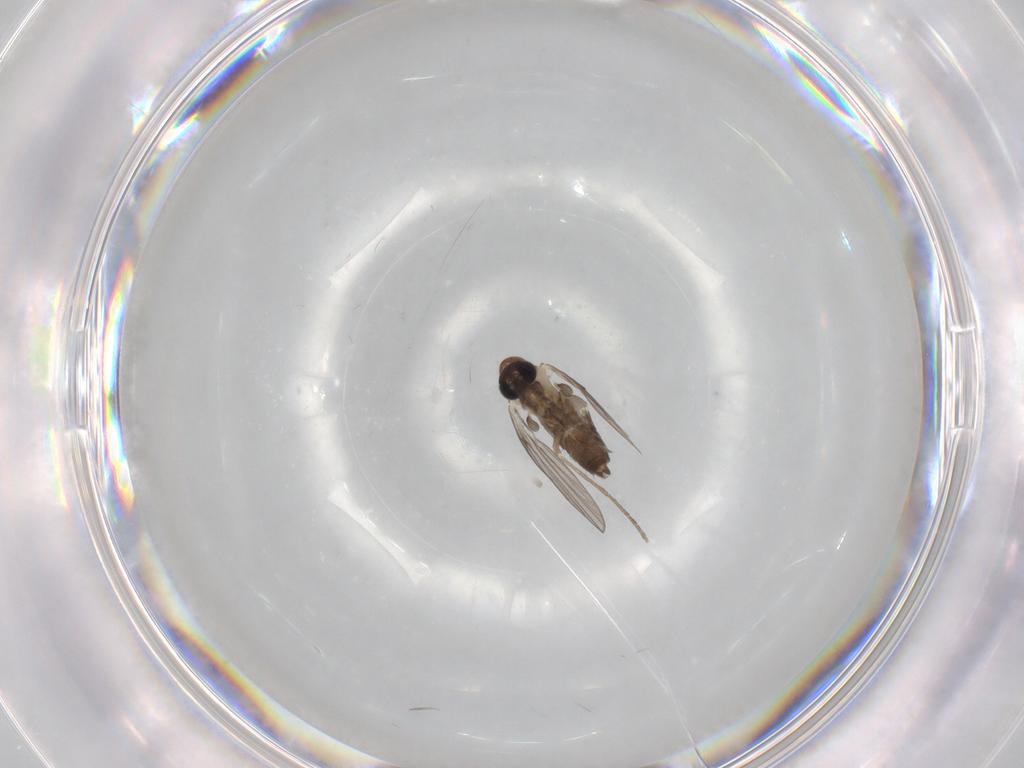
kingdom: Animalia
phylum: Arthropoda
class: Insecta
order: Diptera
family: Psychodidae
